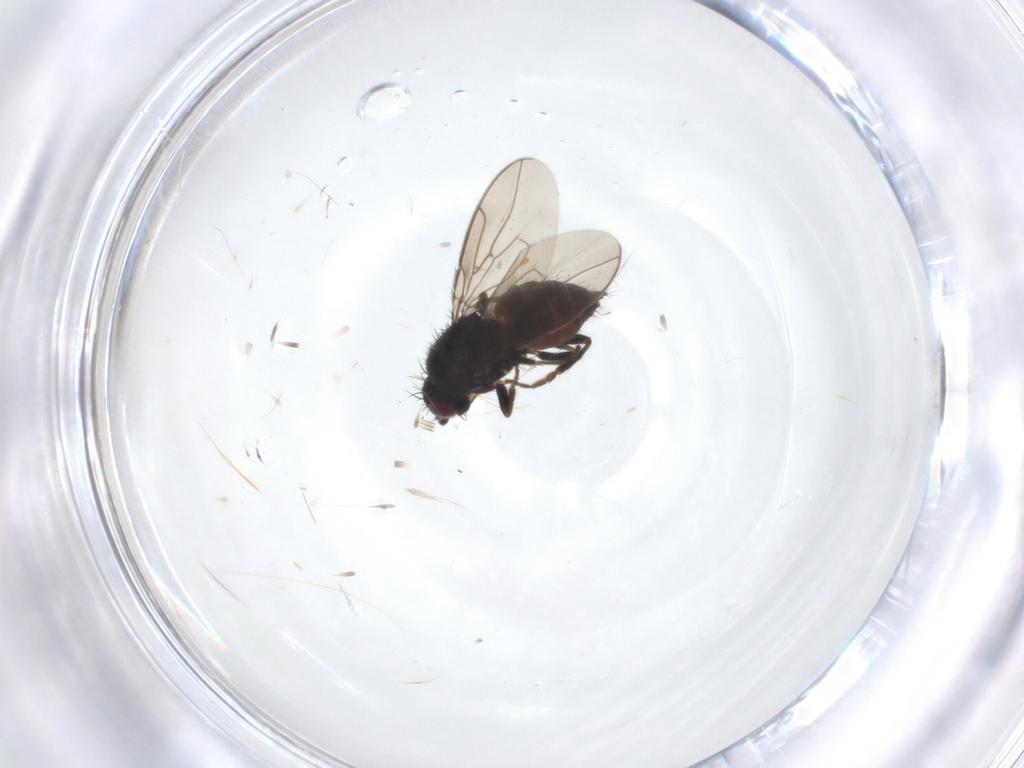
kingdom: Animalia
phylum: Arthropoda
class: Insecta
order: Diptera
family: Sphaeroceridae
